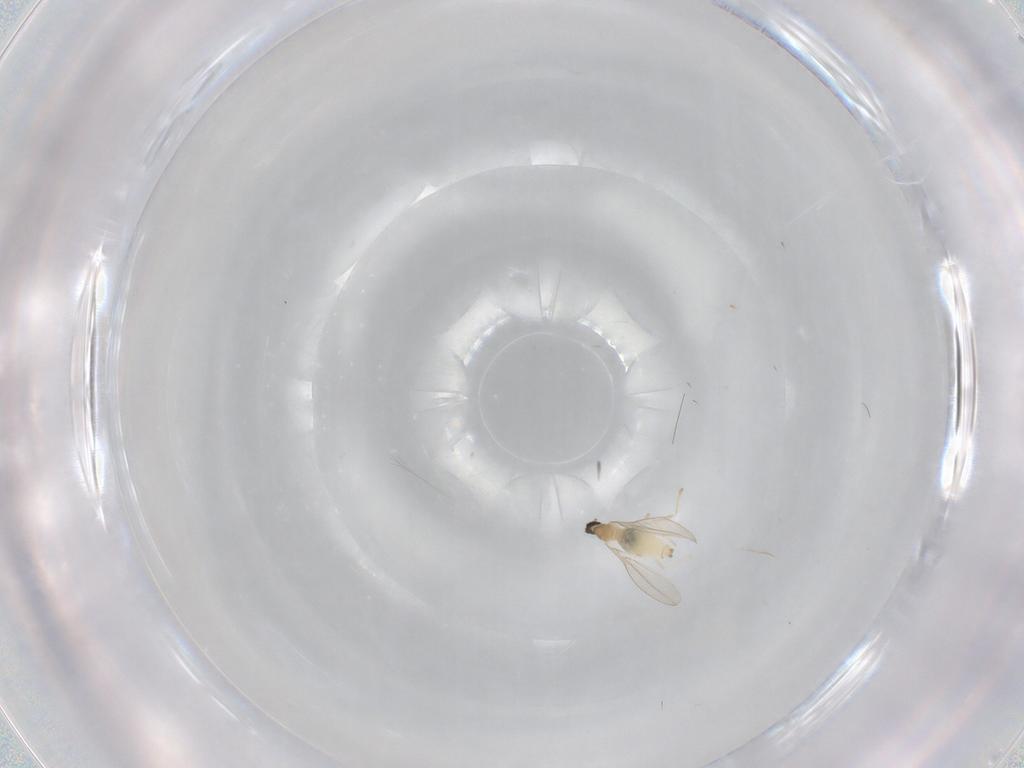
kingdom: Animalia
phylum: Arthropoda
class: Insecta
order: Diptera
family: Cecidomyiidae
